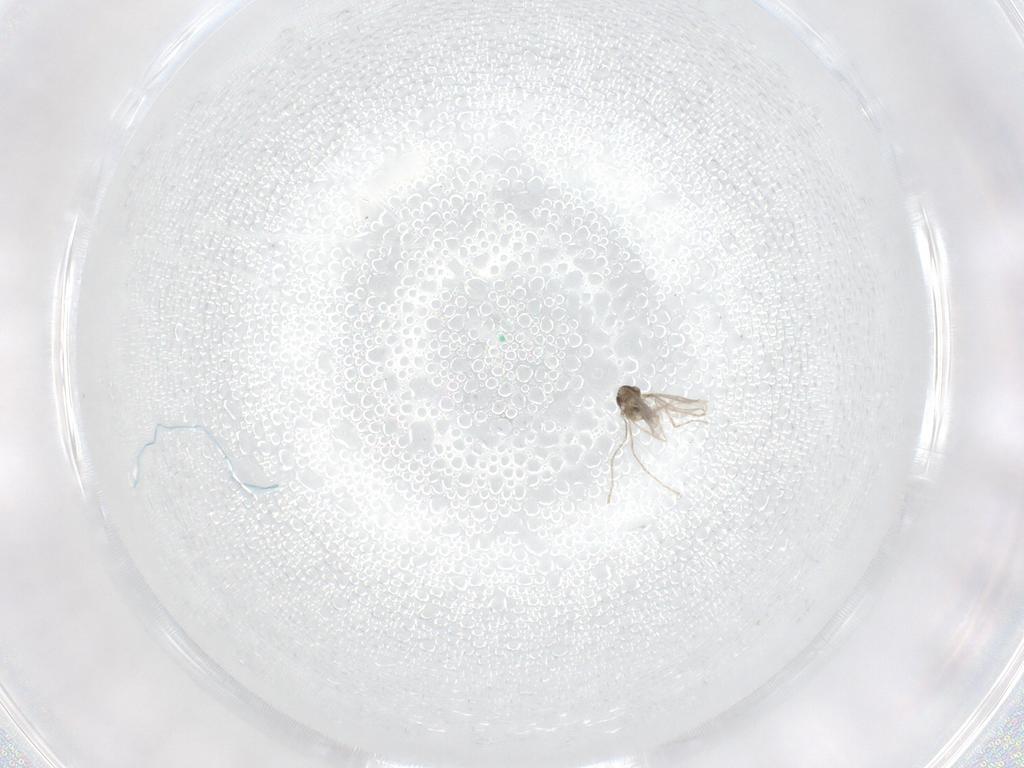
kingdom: Animalia
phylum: Arthropoda
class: Insecta
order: Diptera
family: Cecidomyiidae
